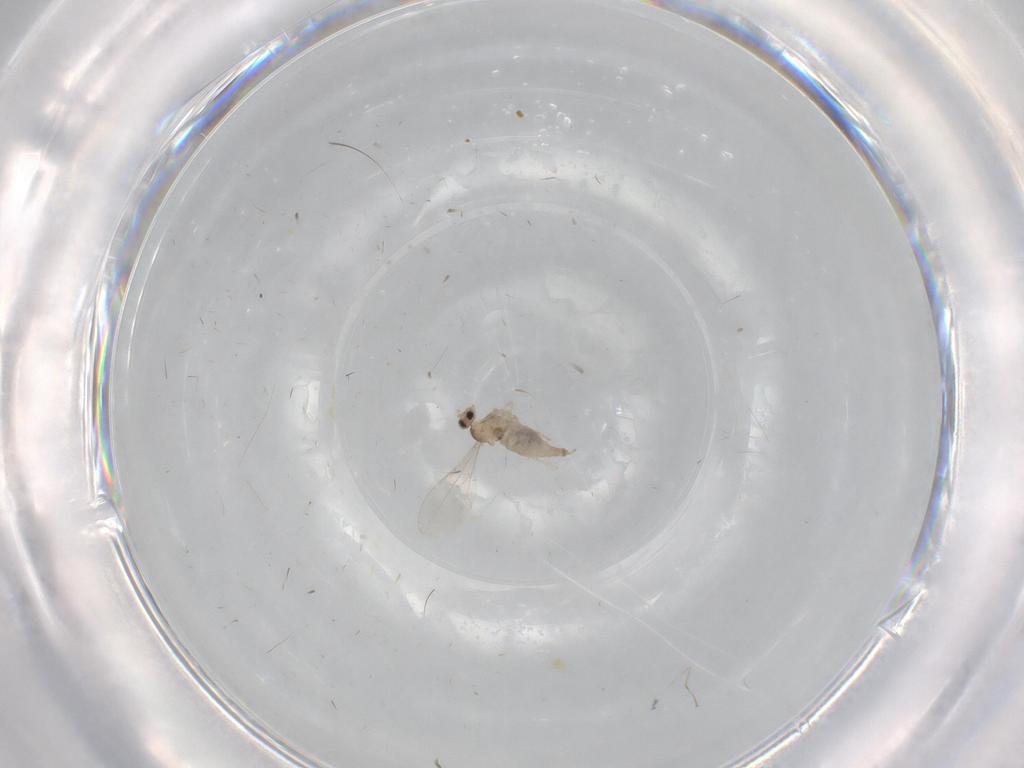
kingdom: Animalia
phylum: Arthropoda
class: Insecta
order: Diptera
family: Cecidomyiidae
